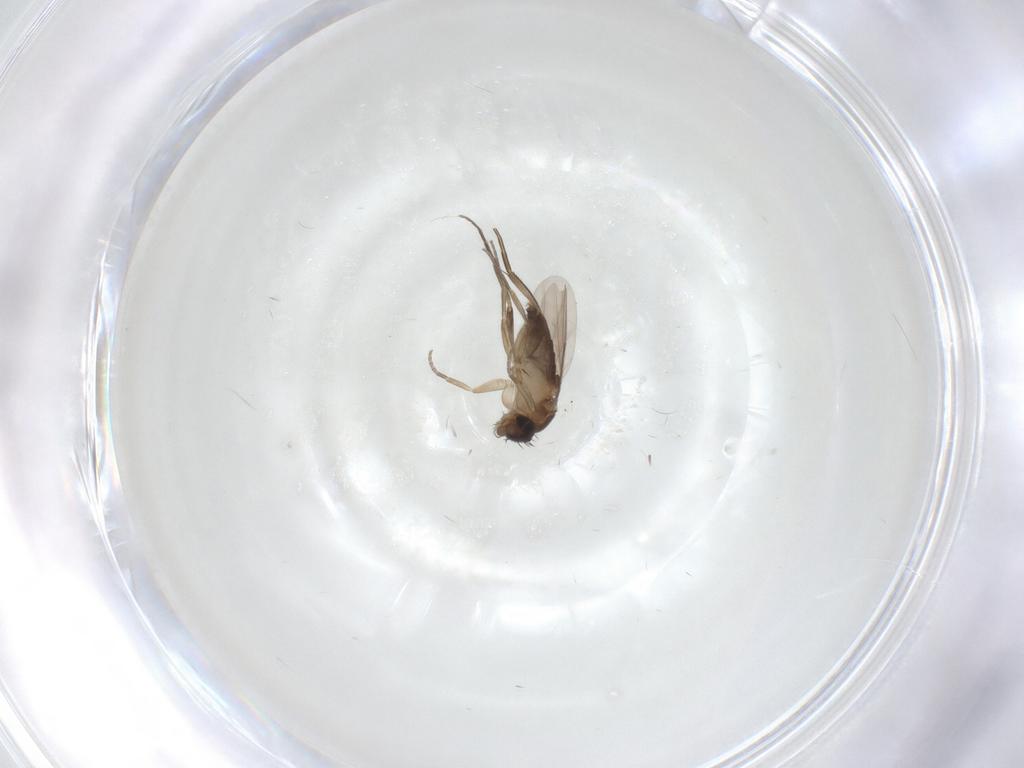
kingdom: Animalia
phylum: Arthropoda
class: Insecta
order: Diptera
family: Phoridae
